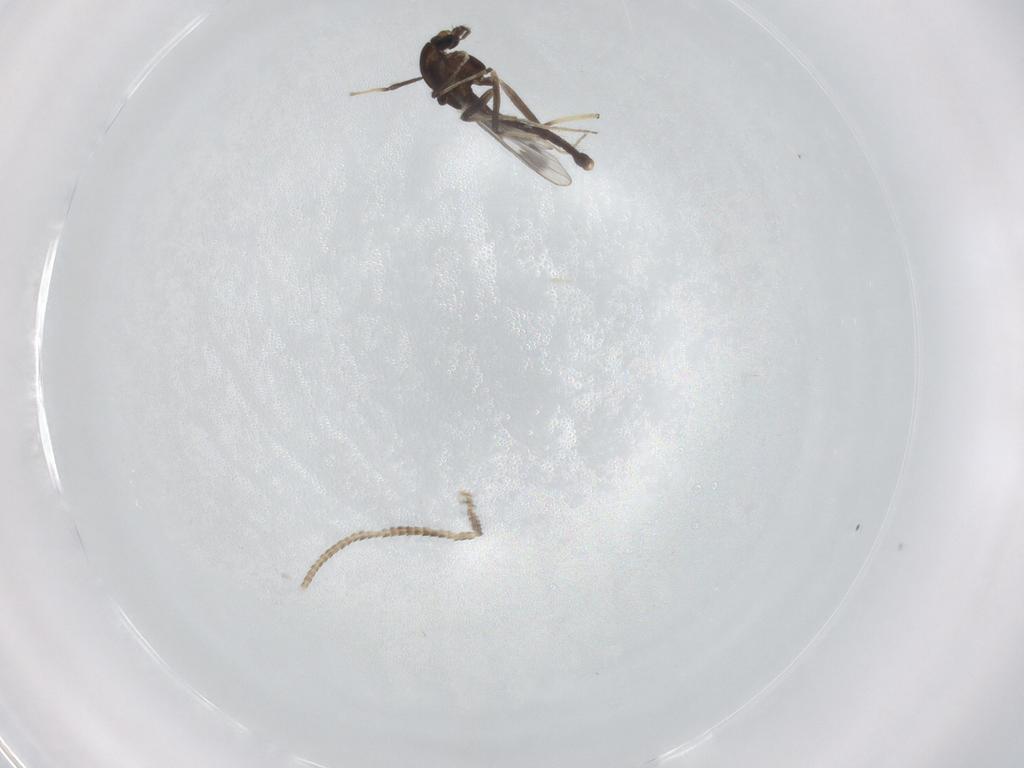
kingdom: Animalia
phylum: Arthropoda
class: Insecta
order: Diptera
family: Chironomidae
